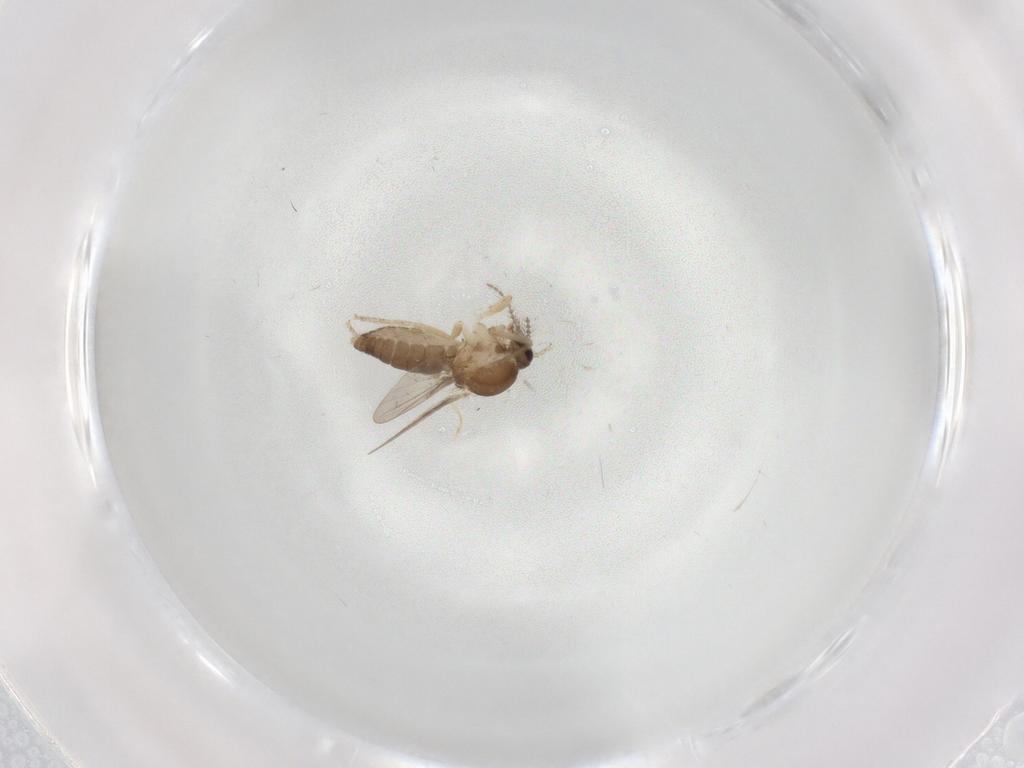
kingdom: Animalia
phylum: Arthropoda
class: Insecta
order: Diptera
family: Ceratopogonidae
